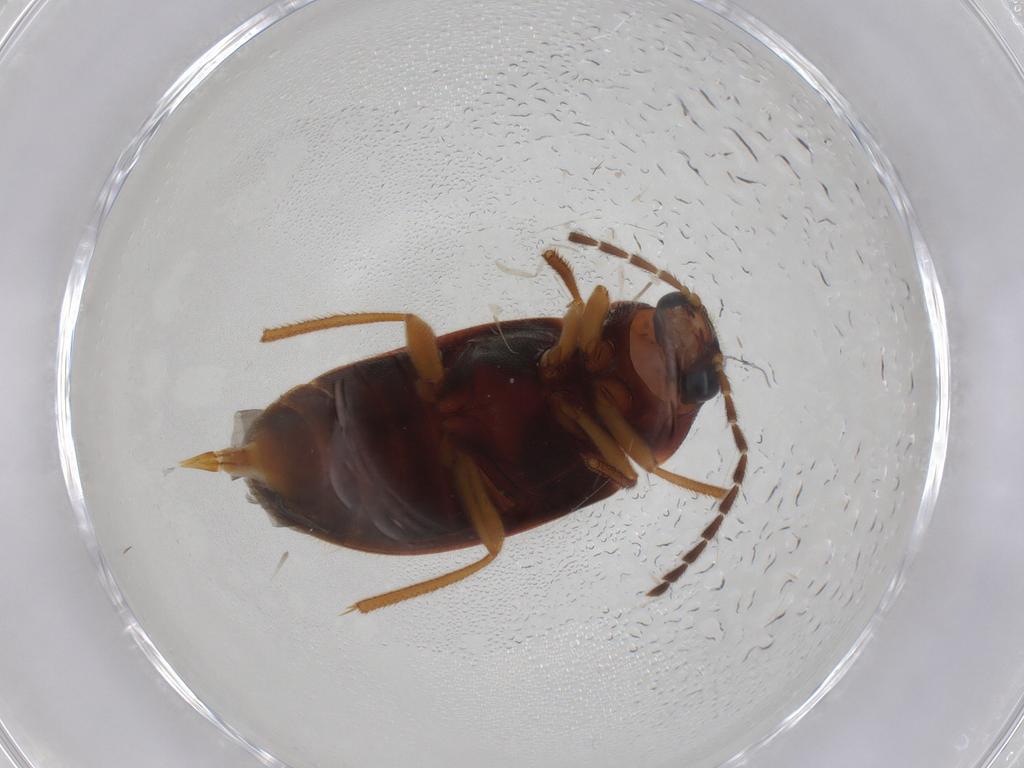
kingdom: Animalia
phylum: Arthropoda
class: Insecta
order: Coleoptera
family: Ptilodactylidae
